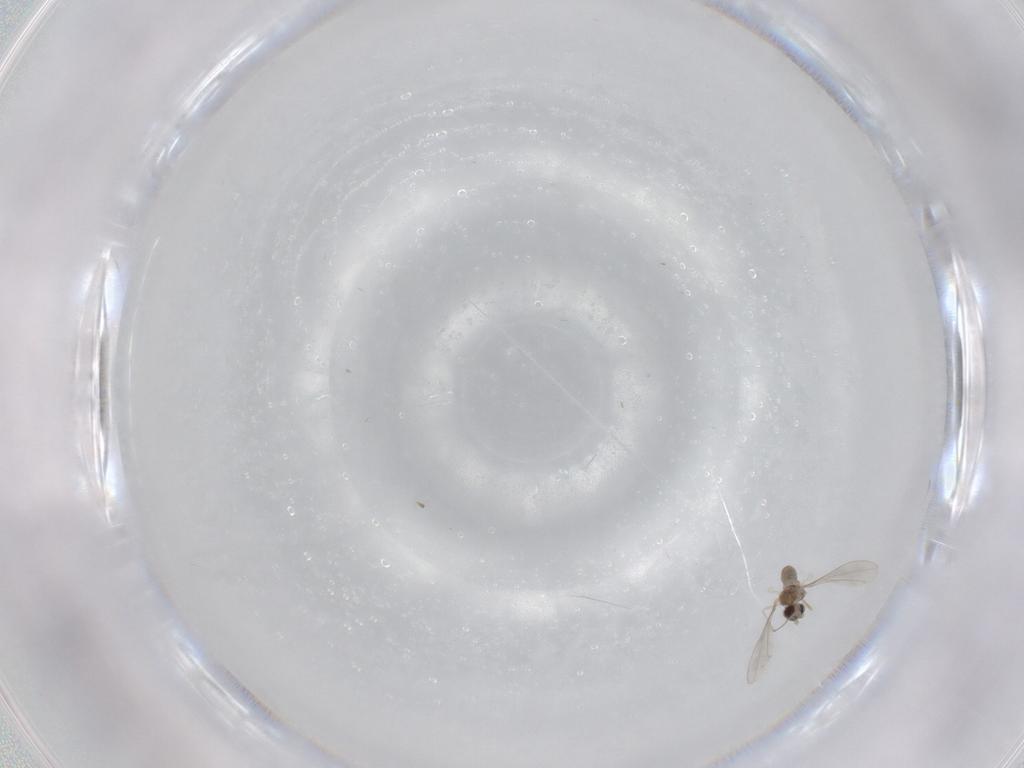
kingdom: Animalia
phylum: Arthropoda
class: Insecta
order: Diptera
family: Cecidomyiidae
